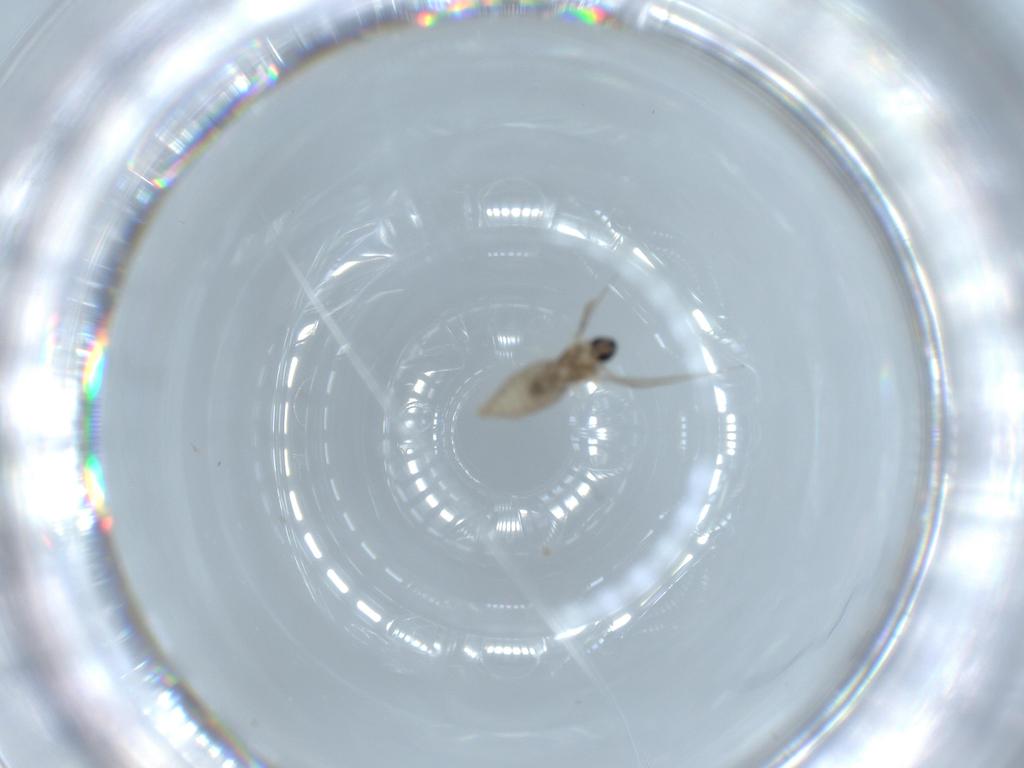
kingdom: Animalia
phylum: Arthropoda
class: Insecta
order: Diptera
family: Cecidomyiidae
